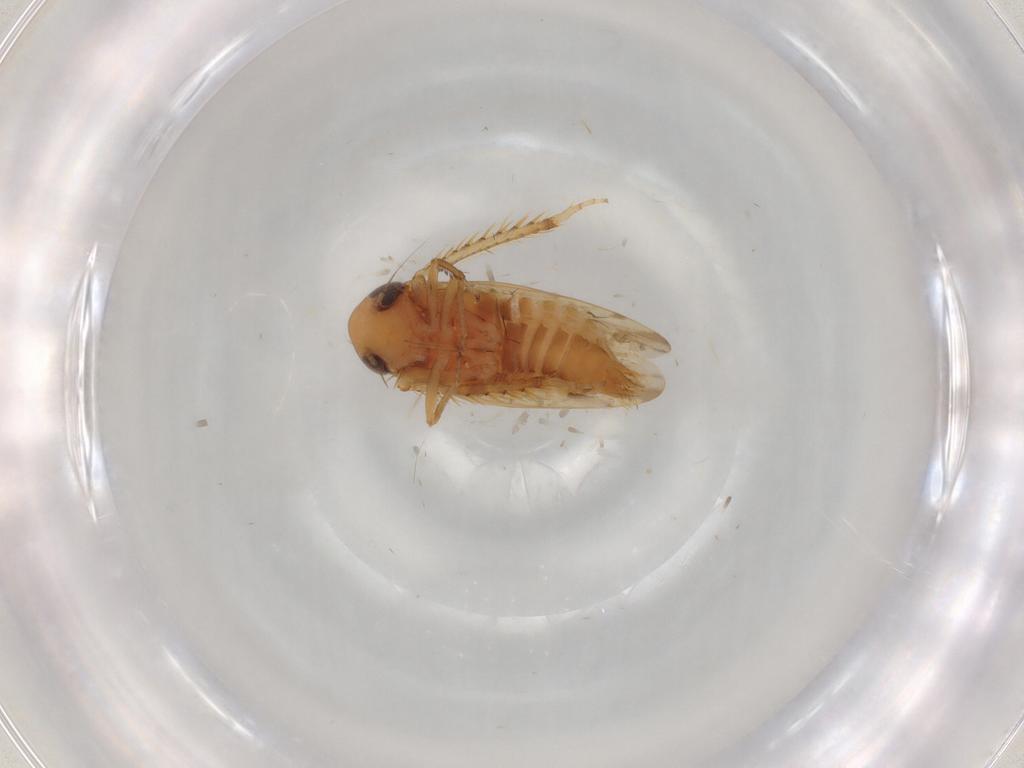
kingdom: Animalia
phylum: Arthropoda
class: Insecta
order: Hemiptera
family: Cicadellidae
